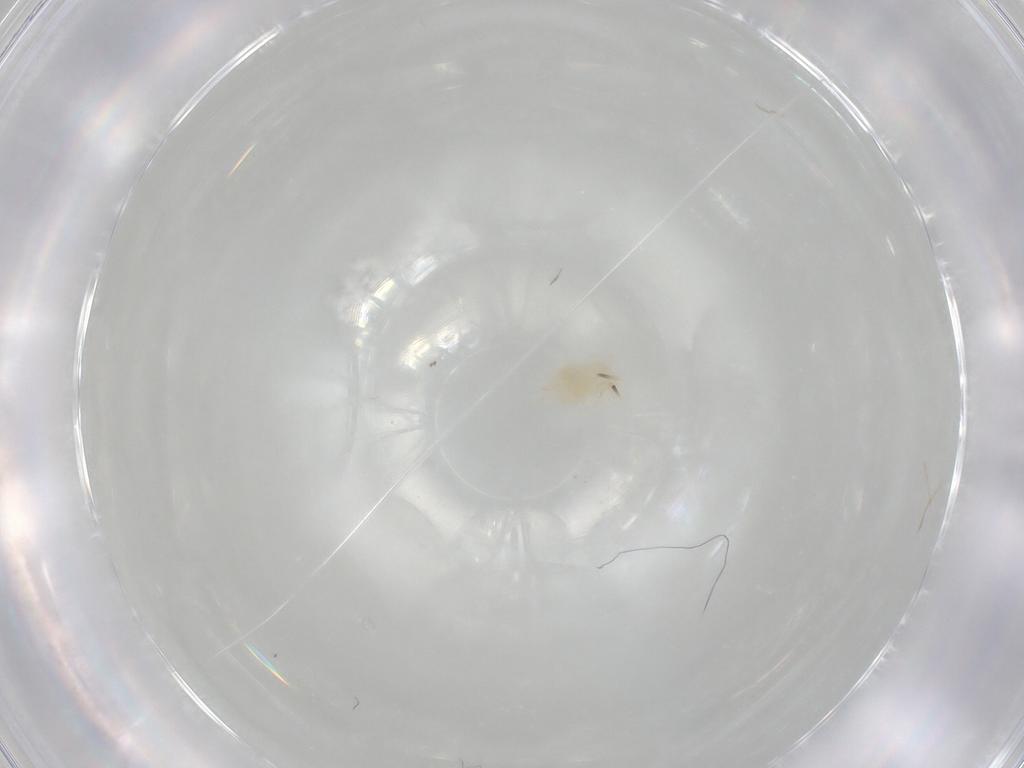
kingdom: Animalia
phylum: Arthropoda
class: Arachnida
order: Trombidiformes
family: Anystidae
